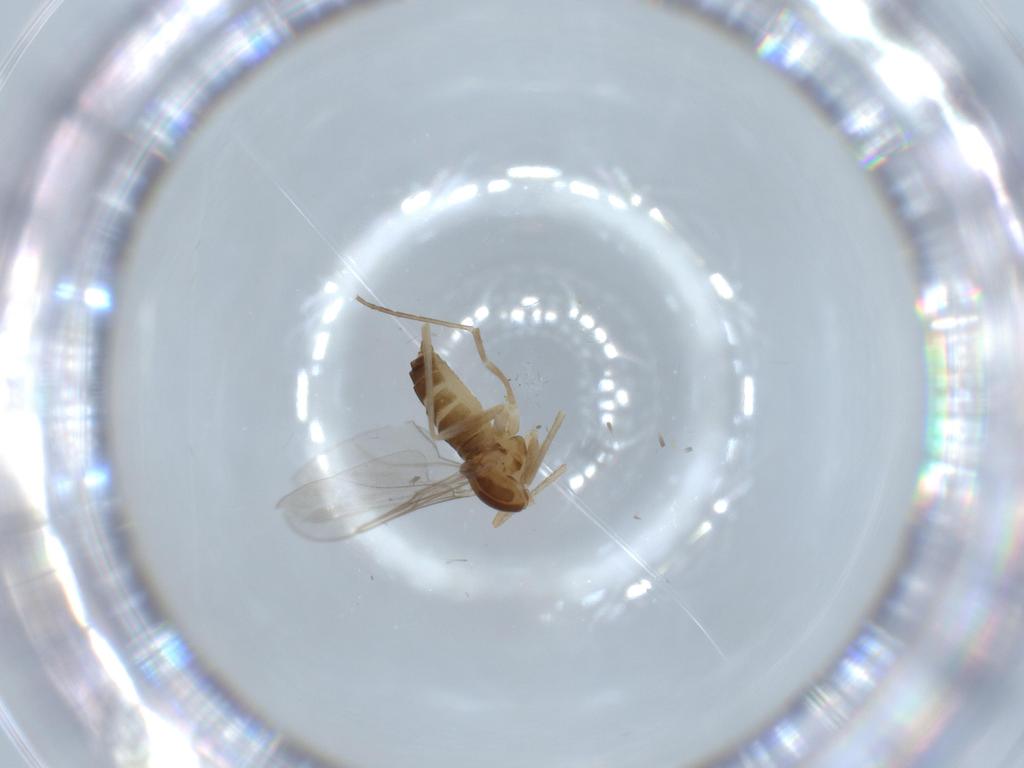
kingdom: Animalia
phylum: Arthropoda
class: Insecta
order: Diptera
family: Cecidomyiidae
